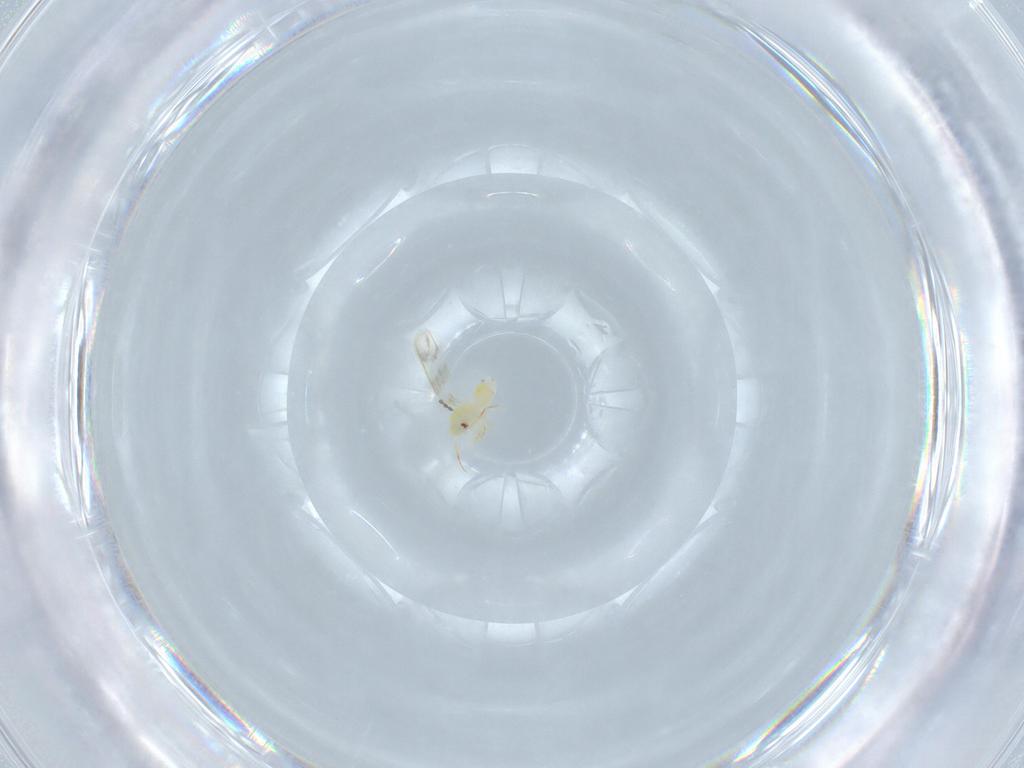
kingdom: Animalia
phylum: Arthropoda
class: Insecta
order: Hemiptera
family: Aleyrodidae
